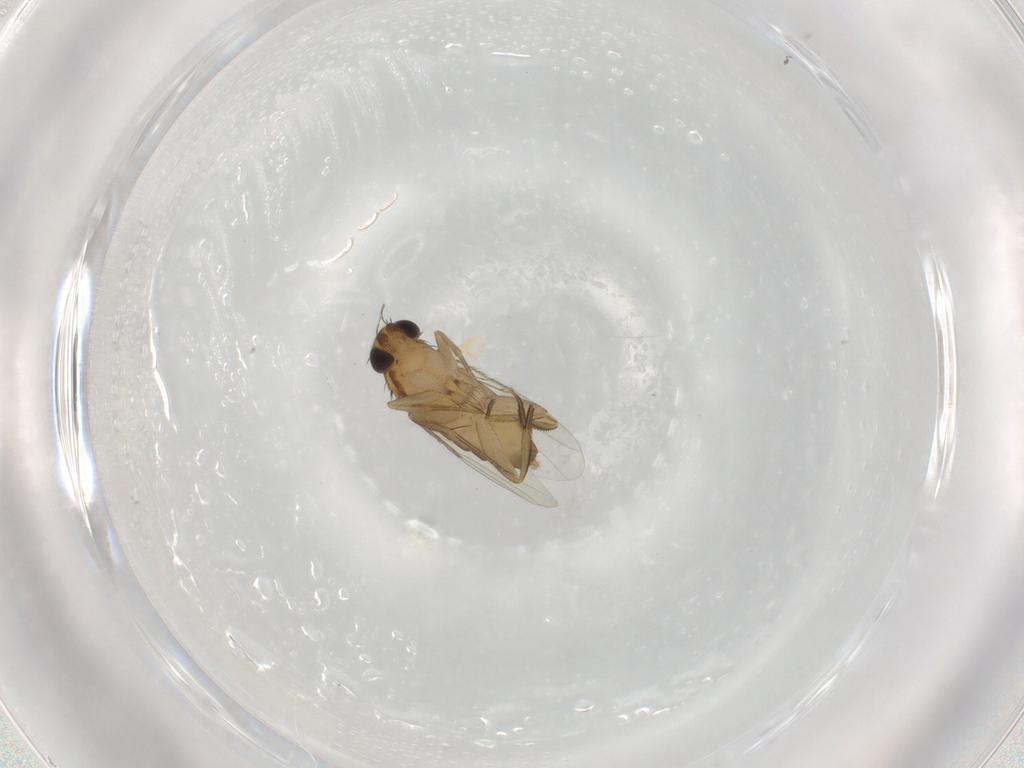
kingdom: Animalia
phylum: Arthropoda
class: Insecta
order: Diptera
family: Phoridae
